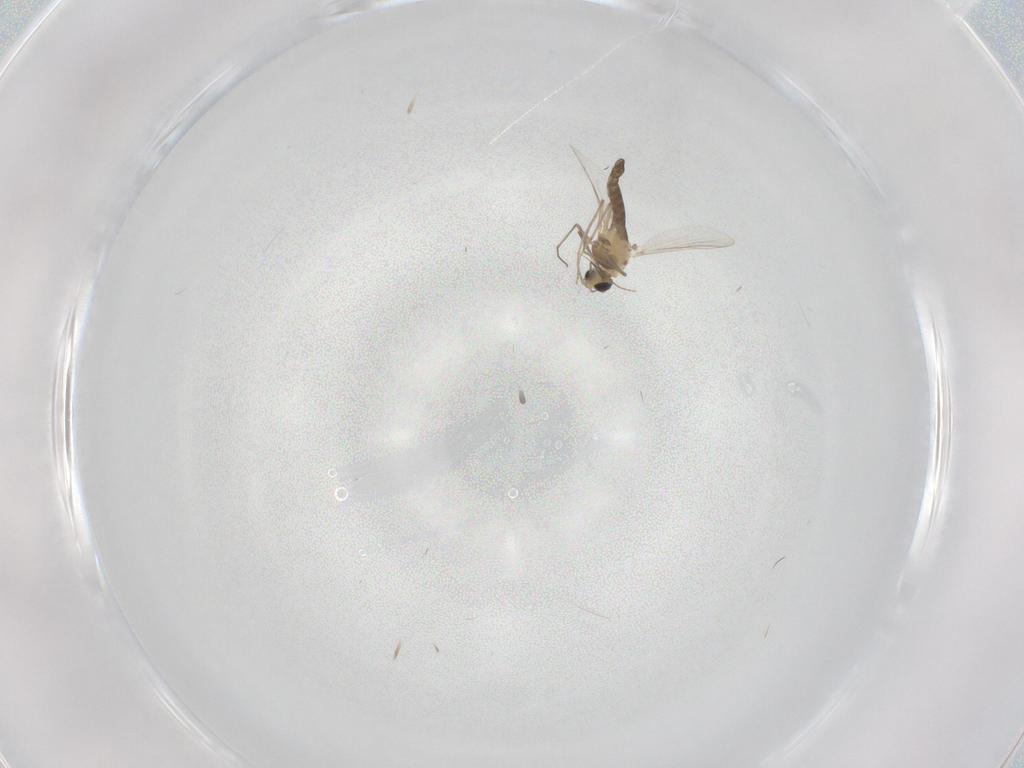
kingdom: Animalia
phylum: Arthropoda
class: Insecta
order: Diptera
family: Chironomidae
